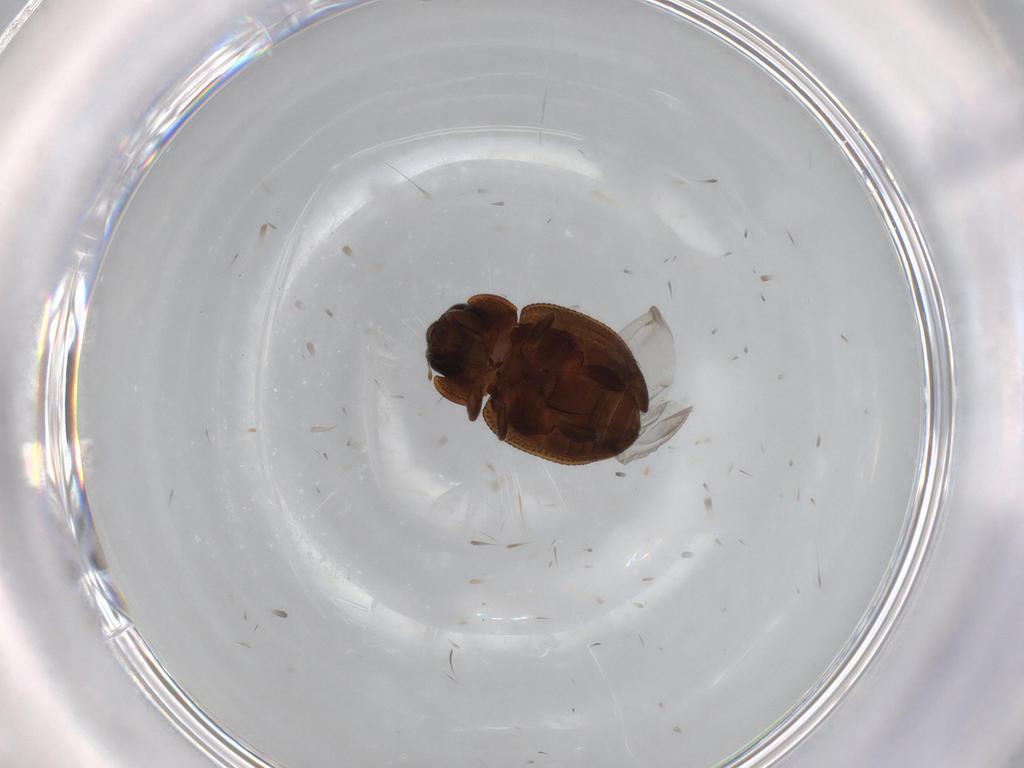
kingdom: Animalia
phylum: Arthropoda
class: Insecta
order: Coleoptera
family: Coccinellidae
